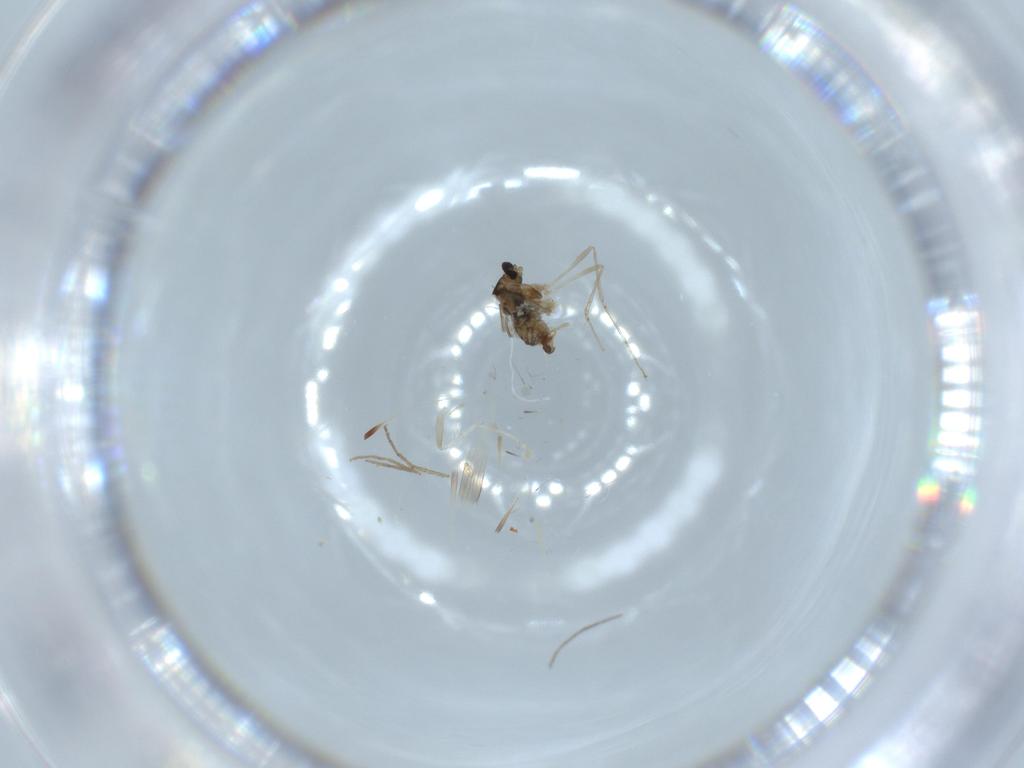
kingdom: Animalia
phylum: Arthropoda
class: Insecta
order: Diptera
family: Cecidomyiidae
